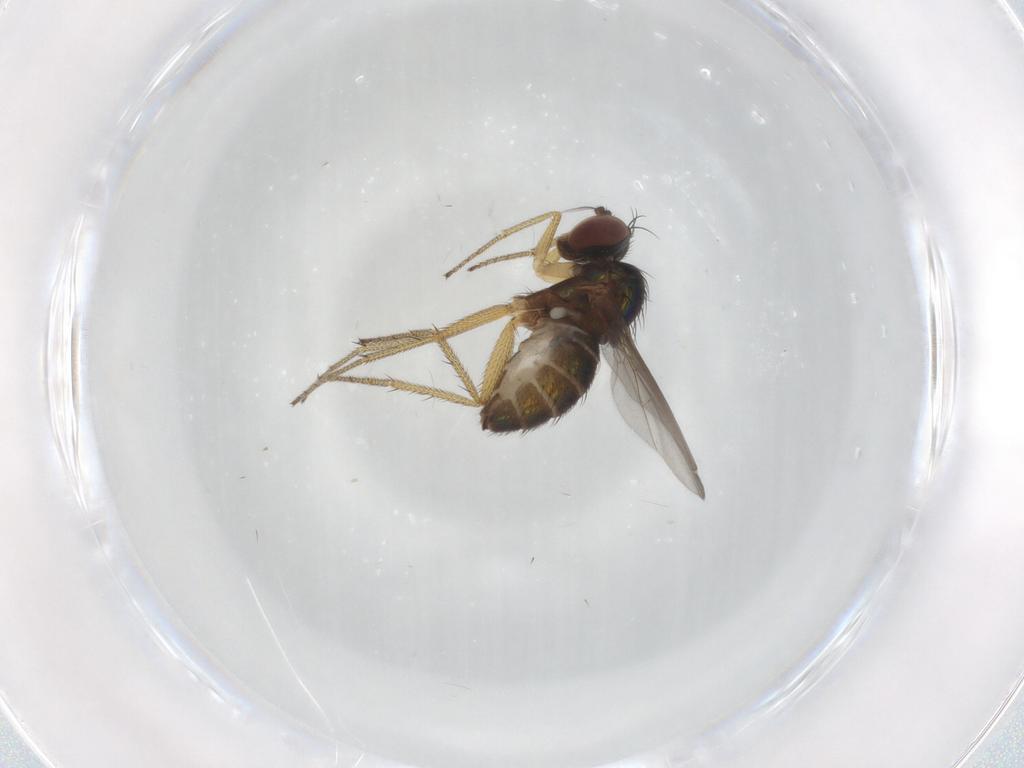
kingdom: Animalia
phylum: Arthropoda
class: Insecta
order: Diptera
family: Dolichopodidae
